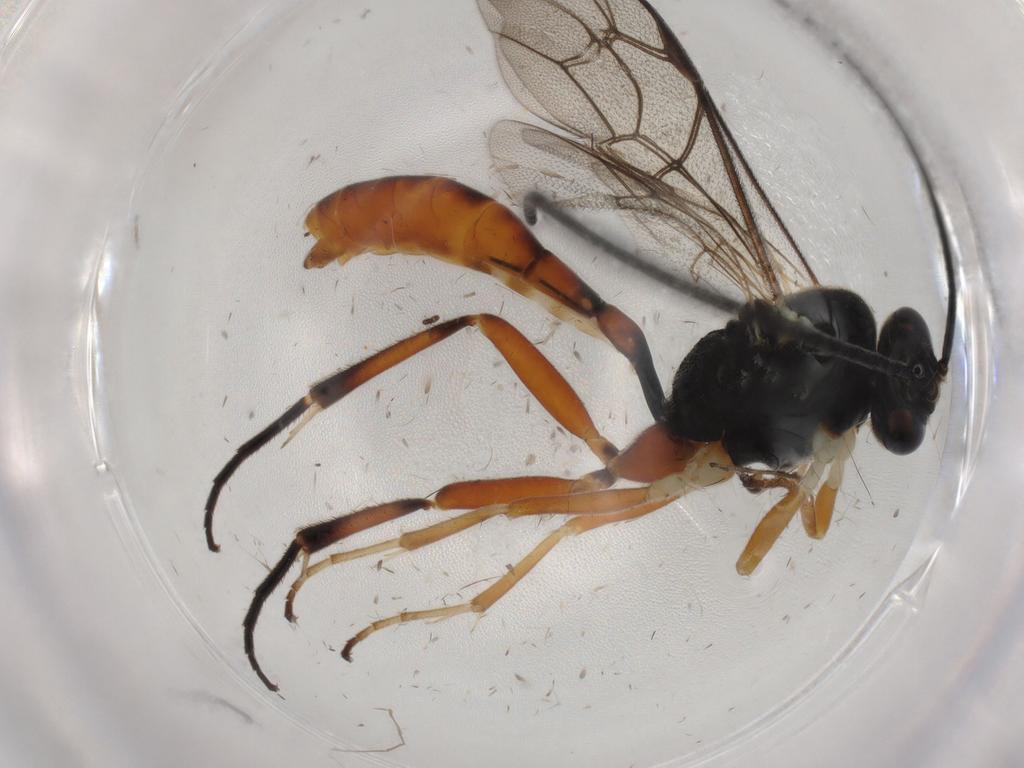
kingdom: Animalia
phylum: Arthropoda
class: Insecta
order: Hymenoptera
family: Ichneumonidae
